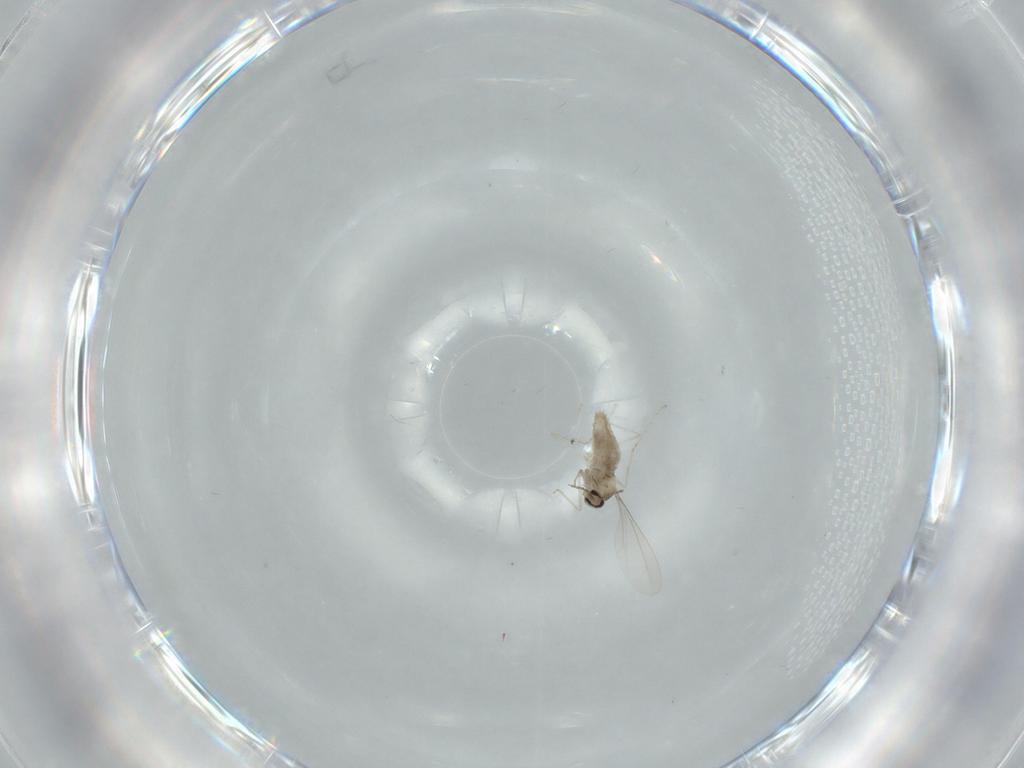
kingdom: Animalia
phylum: Arthropoda
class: Insecta
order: Diptera
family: Cecidomyiidae
